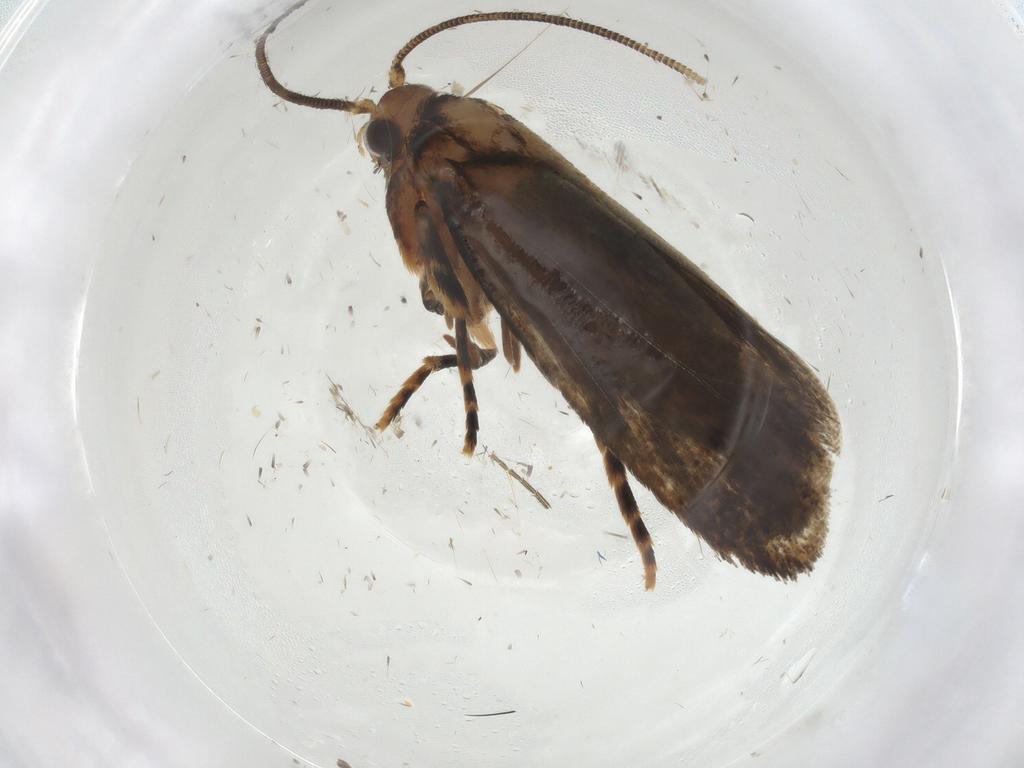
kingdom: Animalia
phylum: Arthropoda
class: Insecta
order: Lepidoptera
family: Tineidae
